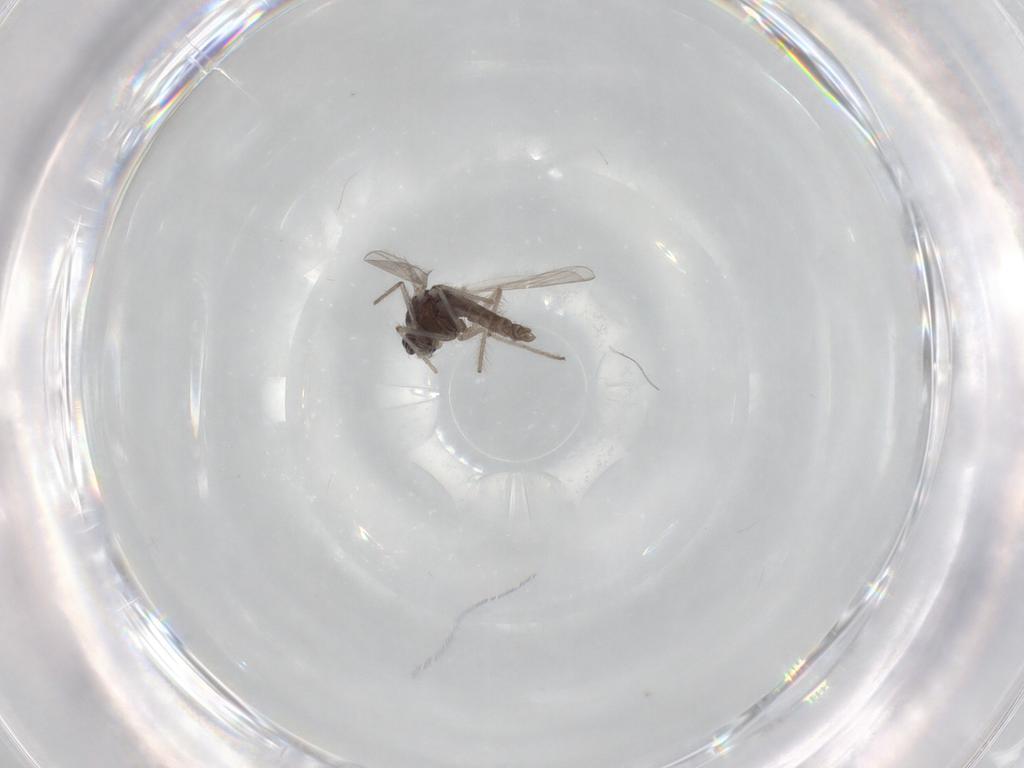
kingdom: Animalia
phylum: Arthropoda
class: Insecta
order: Diptera
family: Chironomidae
